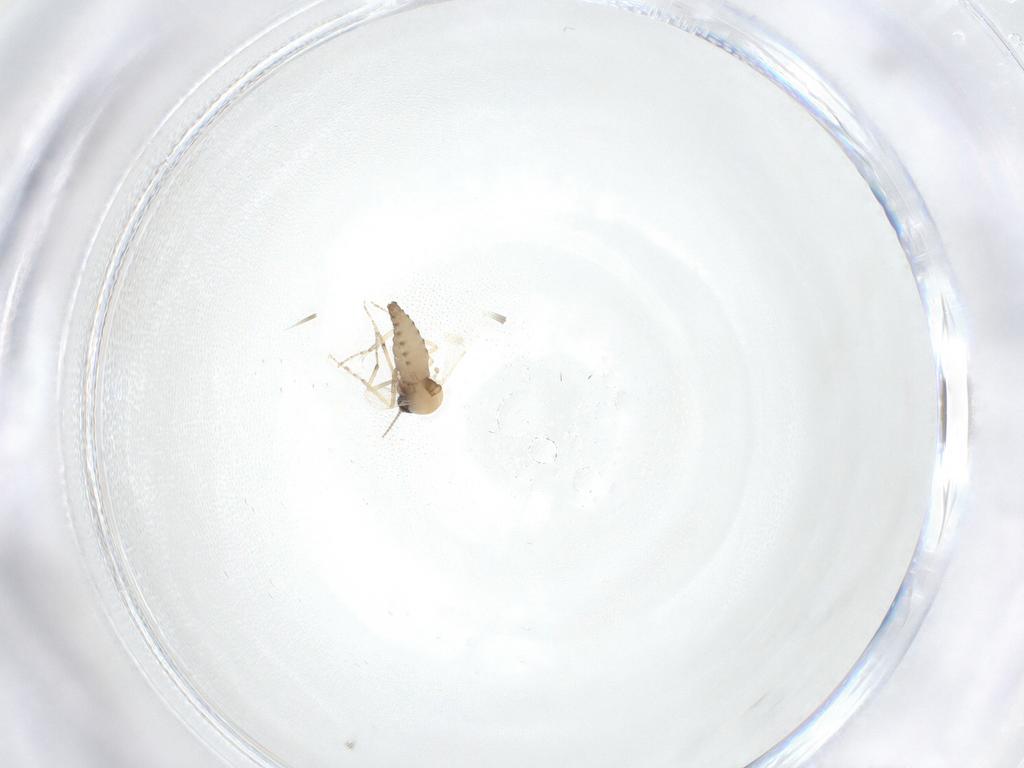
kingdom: Animalia
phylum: Arthropoda
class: Insecta
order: Diptera
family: Ceratopogonidae
